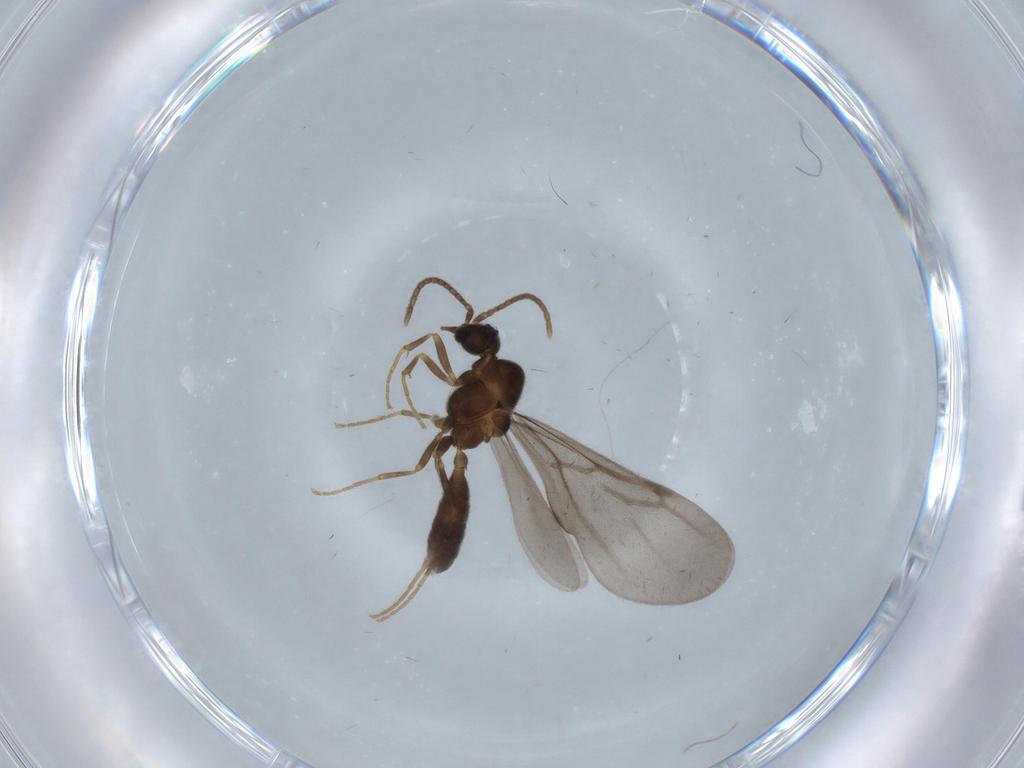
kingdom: Animalia
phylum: Arthropoda
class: Insecta
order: Hymenoptera
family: Formicidae
